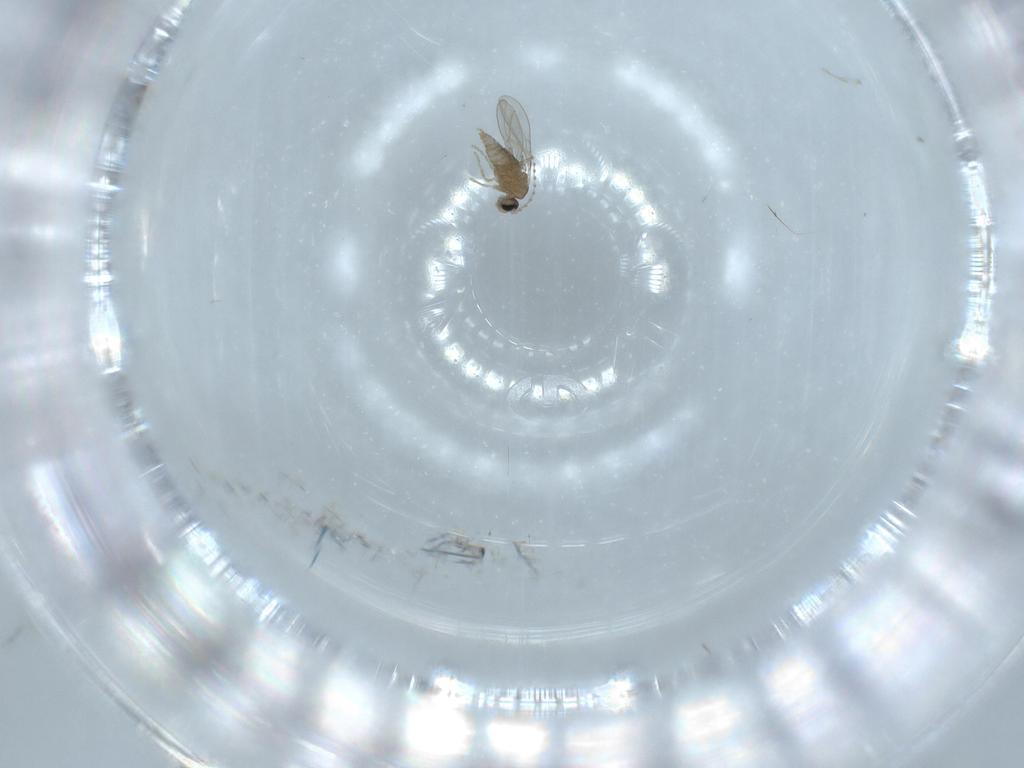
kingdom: Animalia
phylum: Arthropoda
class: Insecta
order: Diptera
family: Cecidomyiidae
